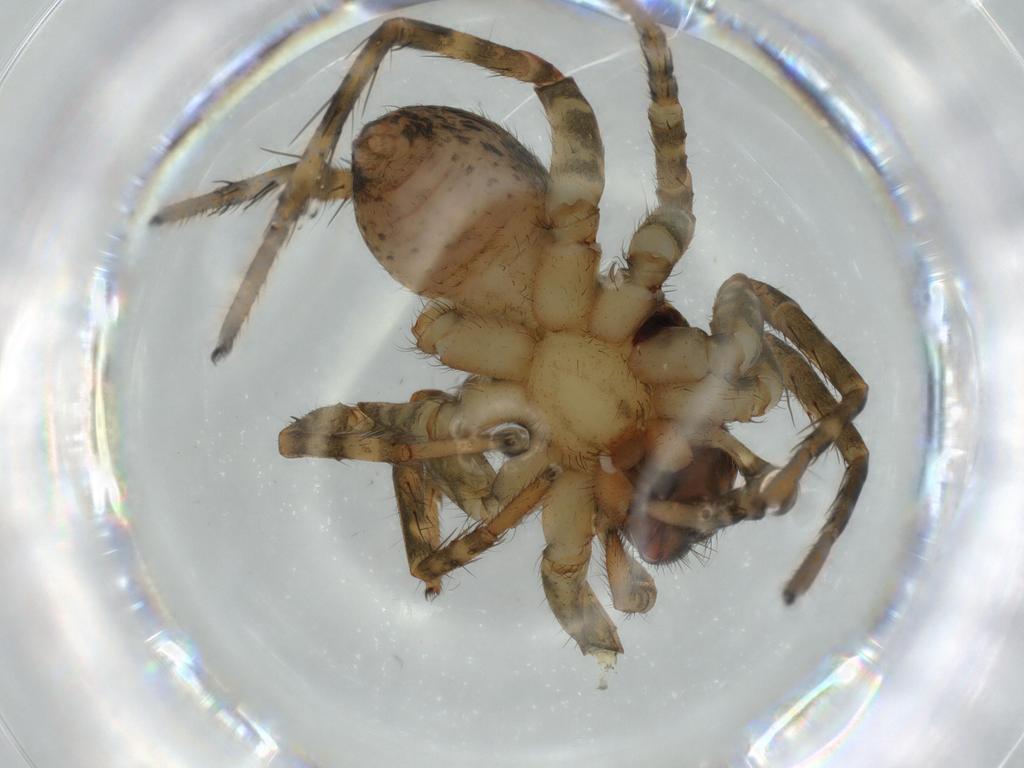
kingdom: Animalia
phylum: Arthropoda
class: Arachnida
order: Araneae
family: Lycosidae
